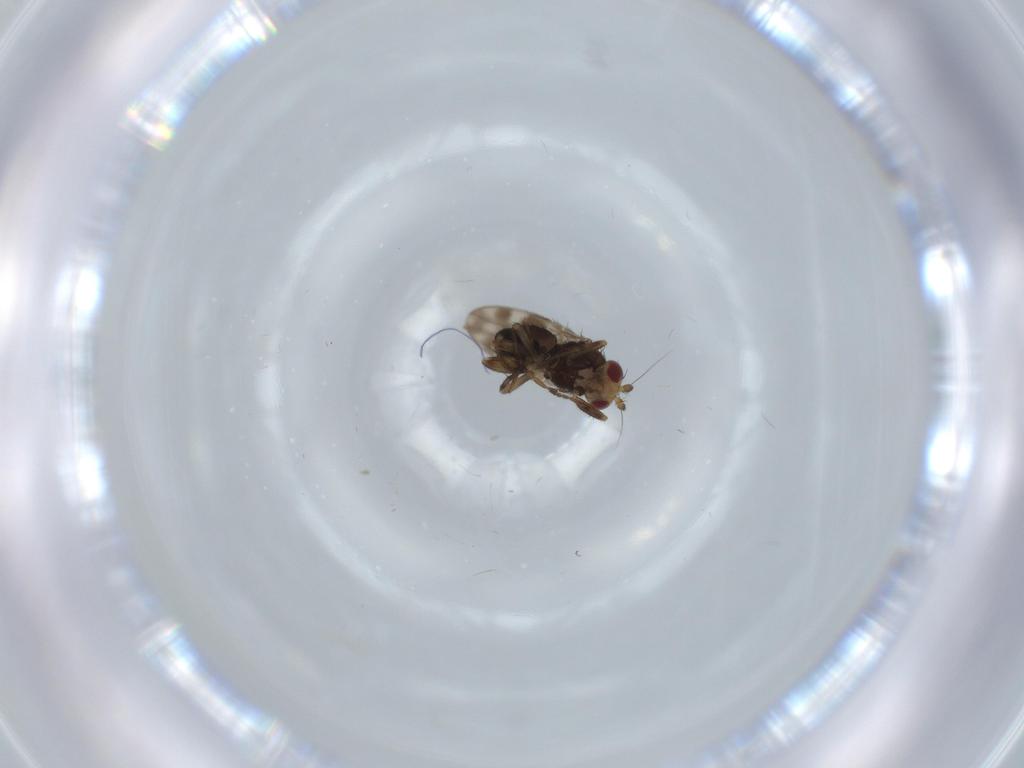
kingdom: Animalia
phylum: Arthropoda
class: Insecta
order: Diptera
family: Sphaeroceridae
